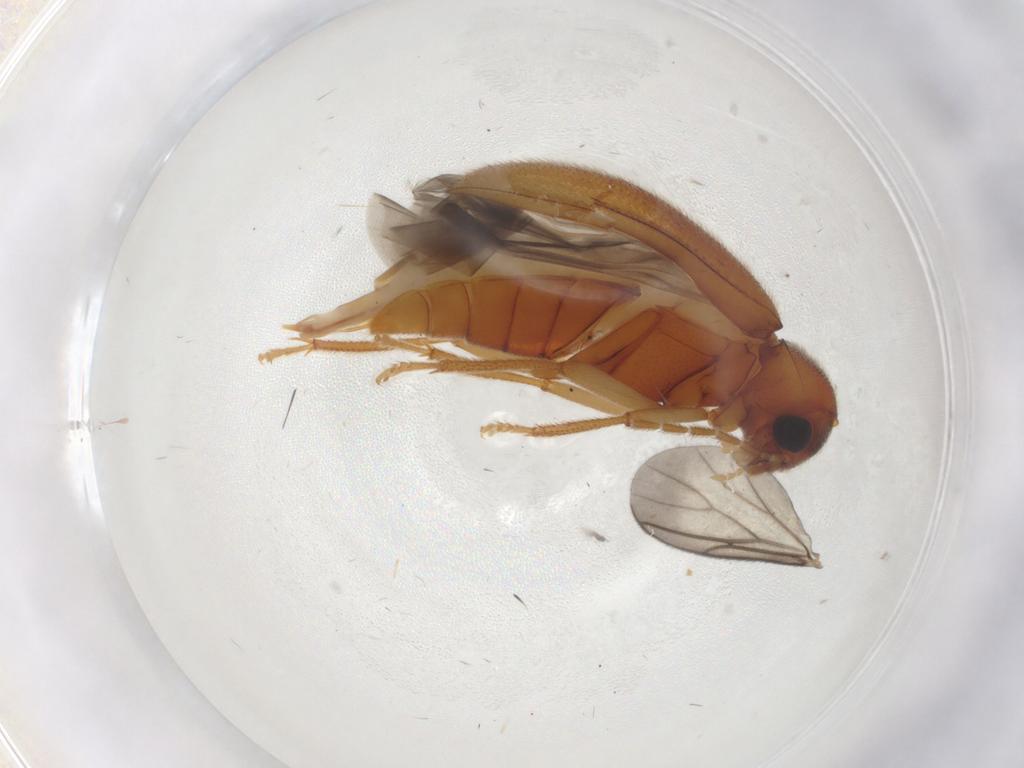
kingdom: Animalia
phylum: Arthropoda
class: Insecta
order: Coleoptera
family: Ptilodactylidae
